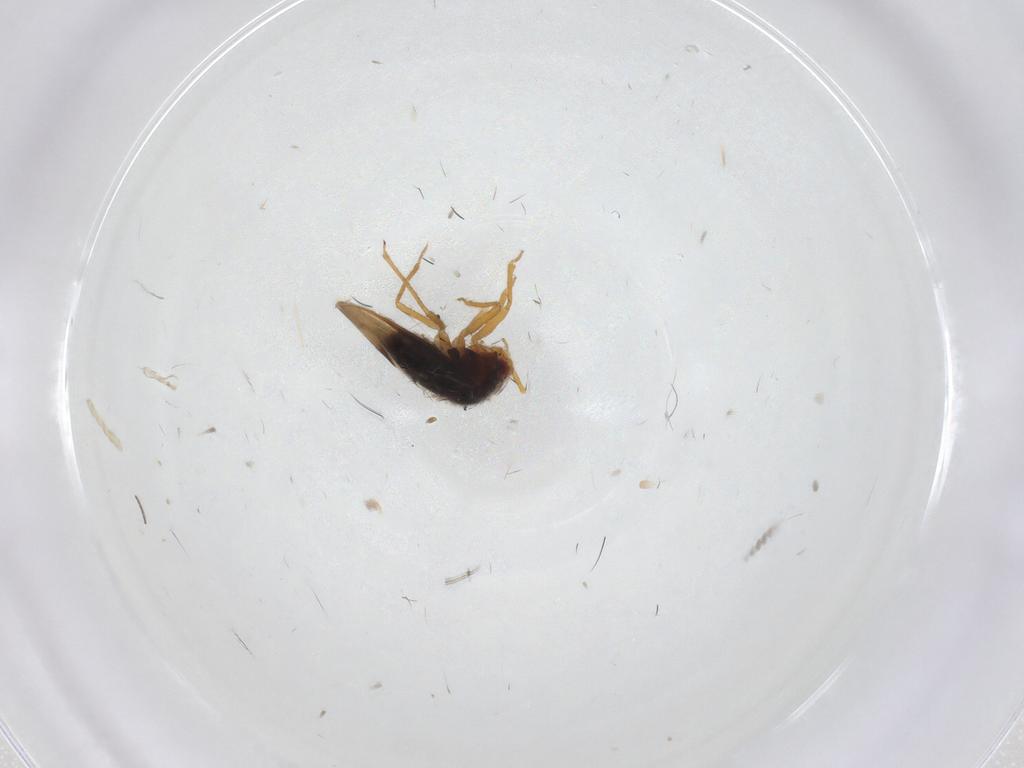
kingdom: Animalia
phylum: Arthropoda
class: Insecta
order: Hemiptera
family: Schizopteridae
